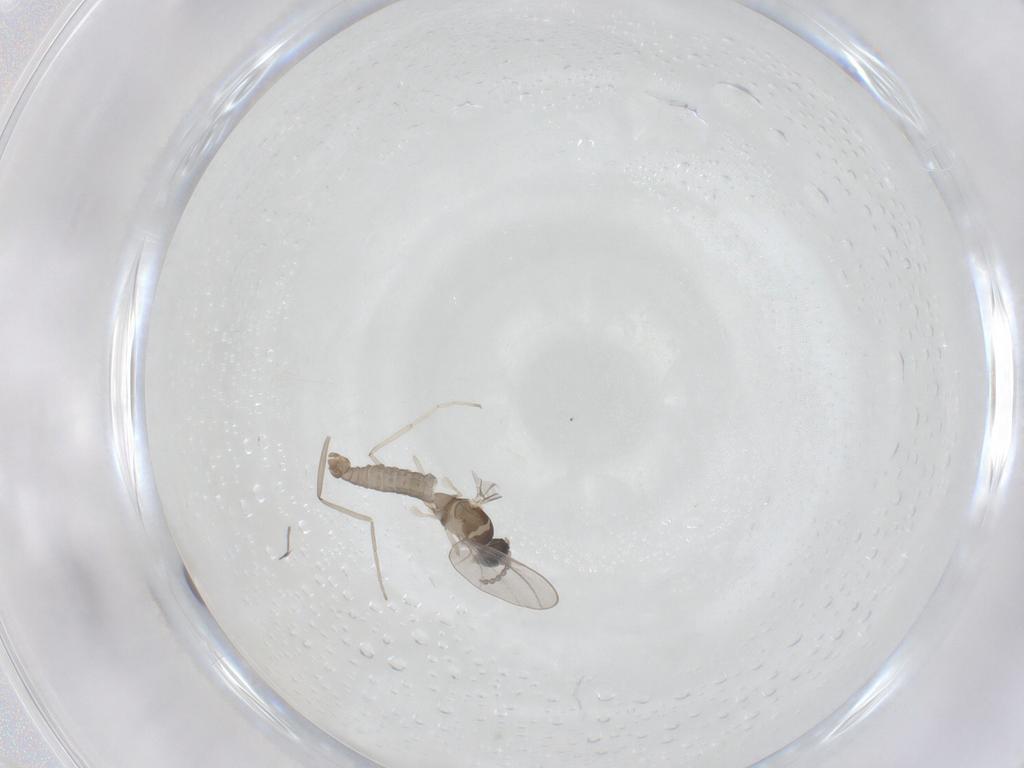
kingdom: Animalia
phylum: Arthropoda
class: Insecta
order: Diptera
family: Cecidomyiidae
